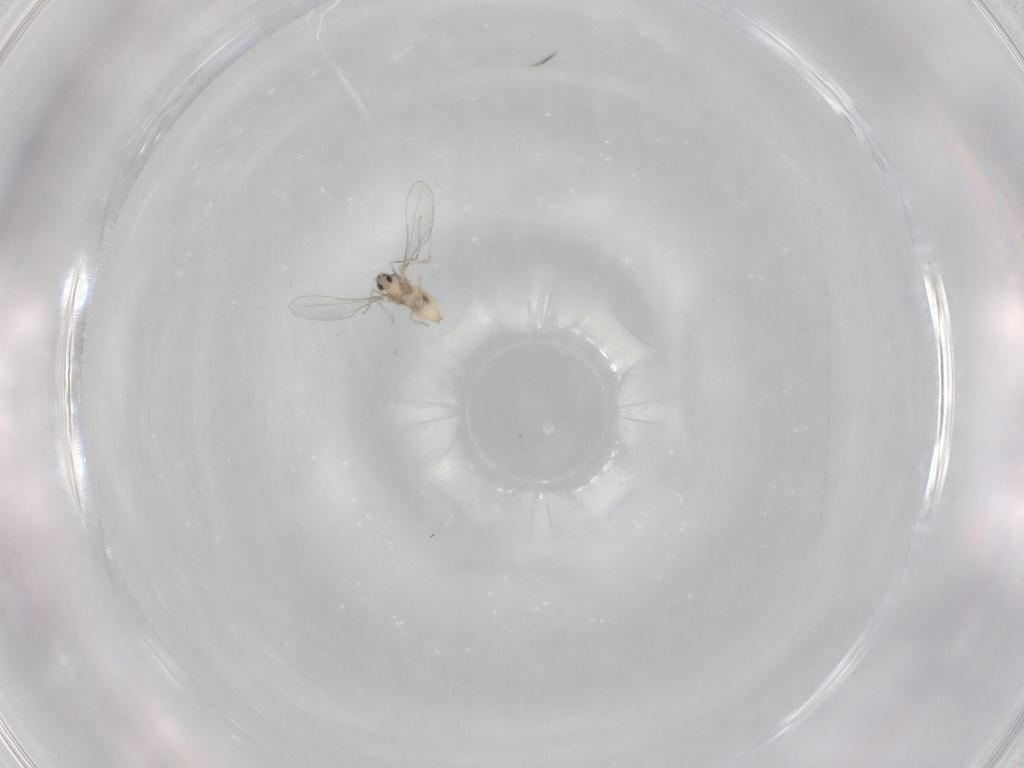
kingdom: Animalia
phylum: Arthropoda
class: Insecta
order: Diptera
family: Cecidomyiidae
